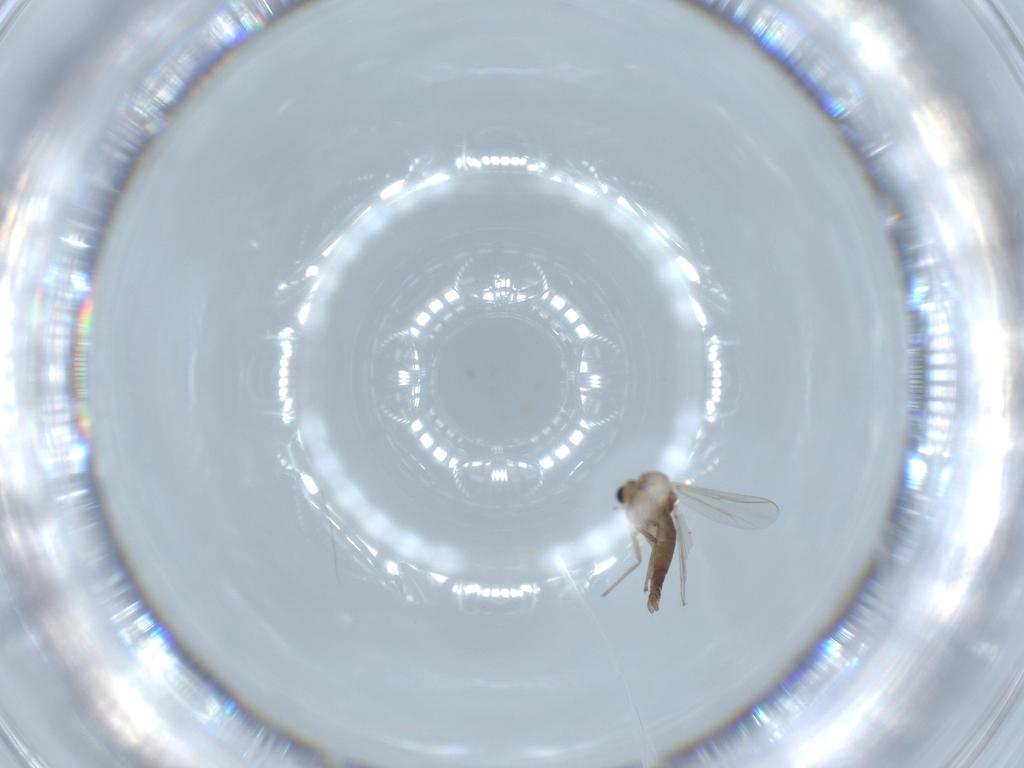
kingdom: Animalia
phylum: Arthropoda
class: Insecta
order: Diptera
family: Chironomidae
